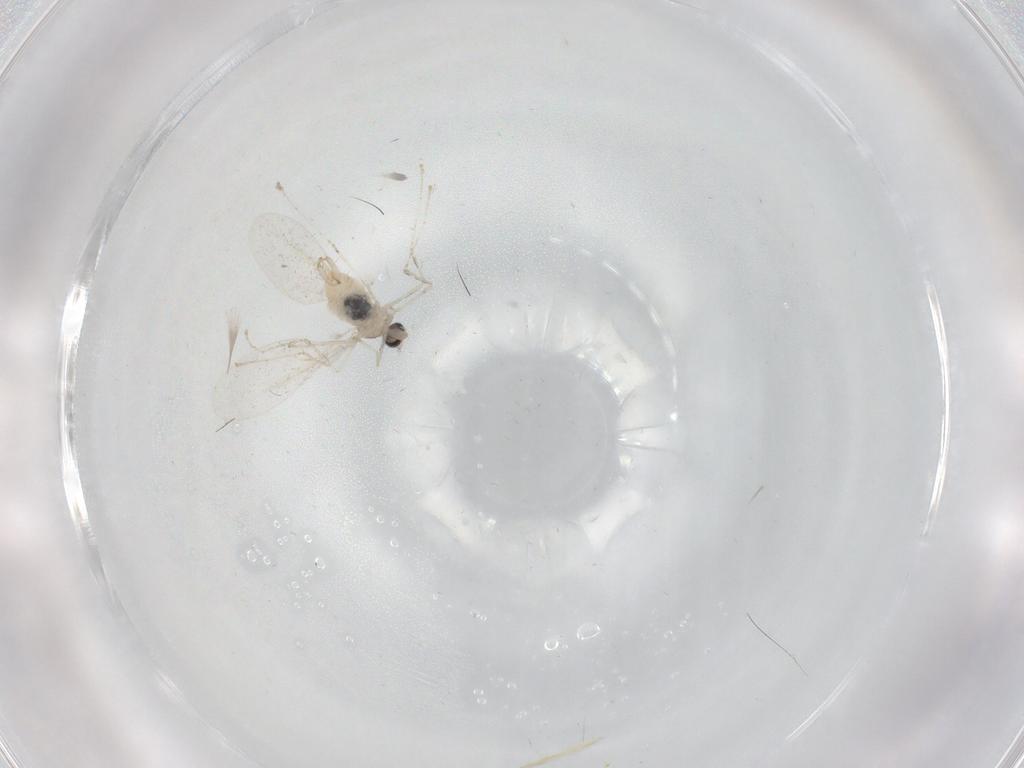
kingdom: Animalia
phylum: Arthropoda
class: Insecta
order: Diptera
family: Cecidomyiidae
